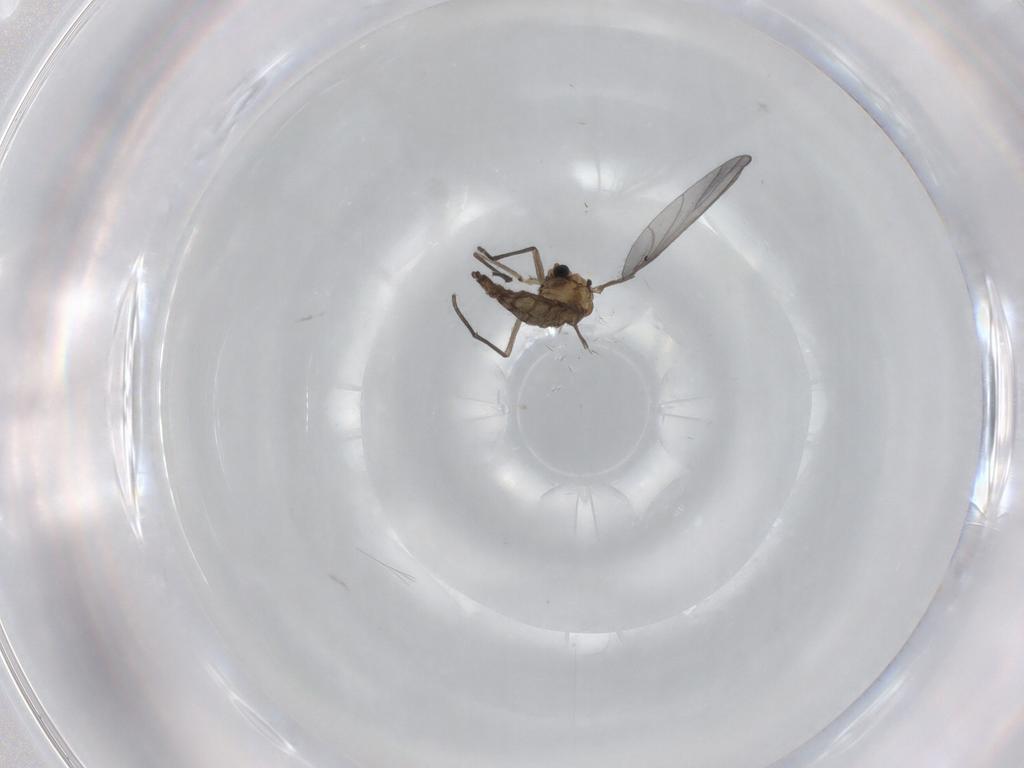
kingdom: Animalia
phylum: Arthropoda
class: Insecta
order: Diptera
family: Sciaridae
